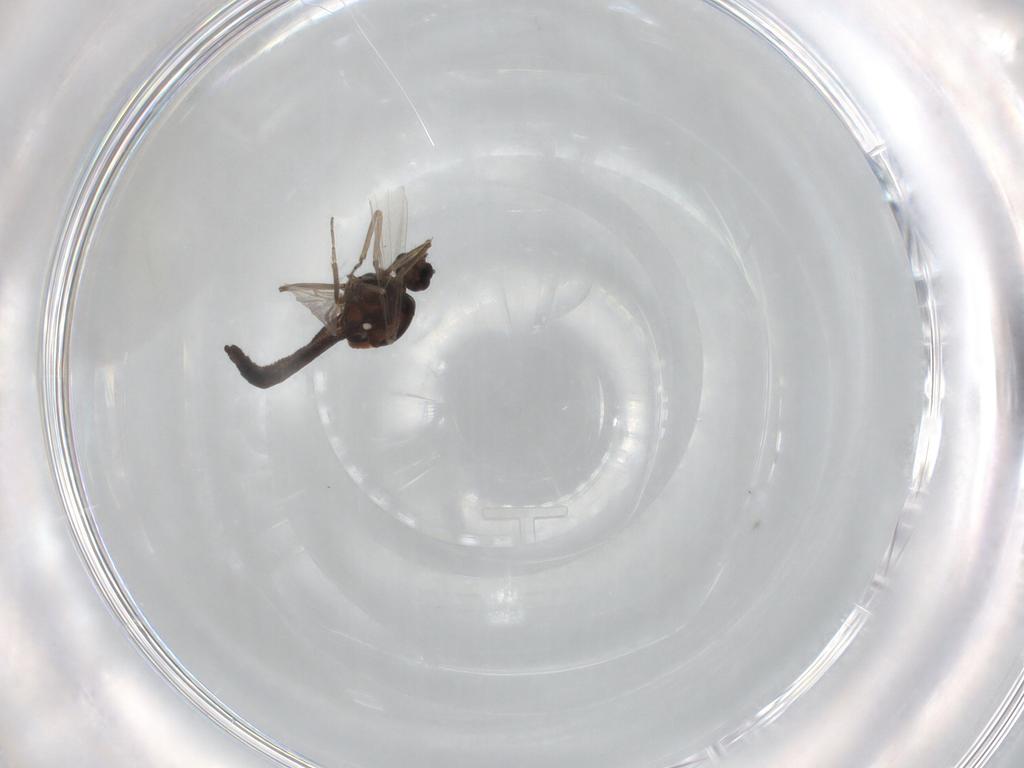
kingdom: Animalia
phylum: Arthropoda
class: Insecta
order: Diptera
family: Ceratopogonidae
